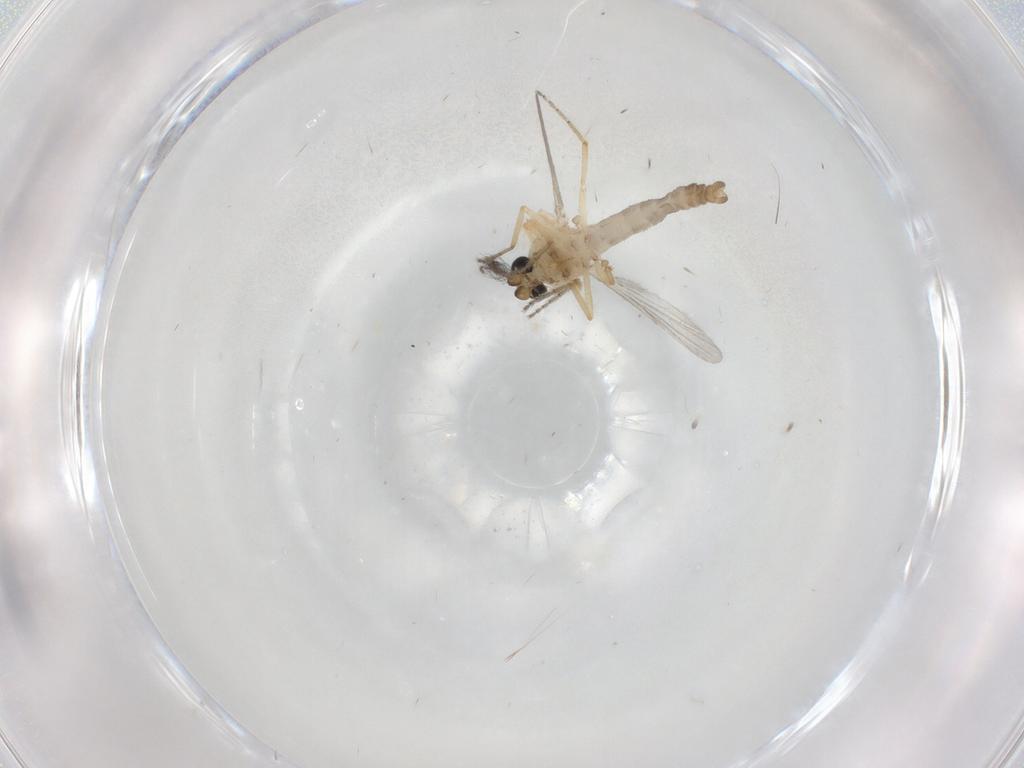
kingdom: Animalia
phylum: Arthropoda
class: Insecta
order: Diptera
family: Ceratopogonidae
